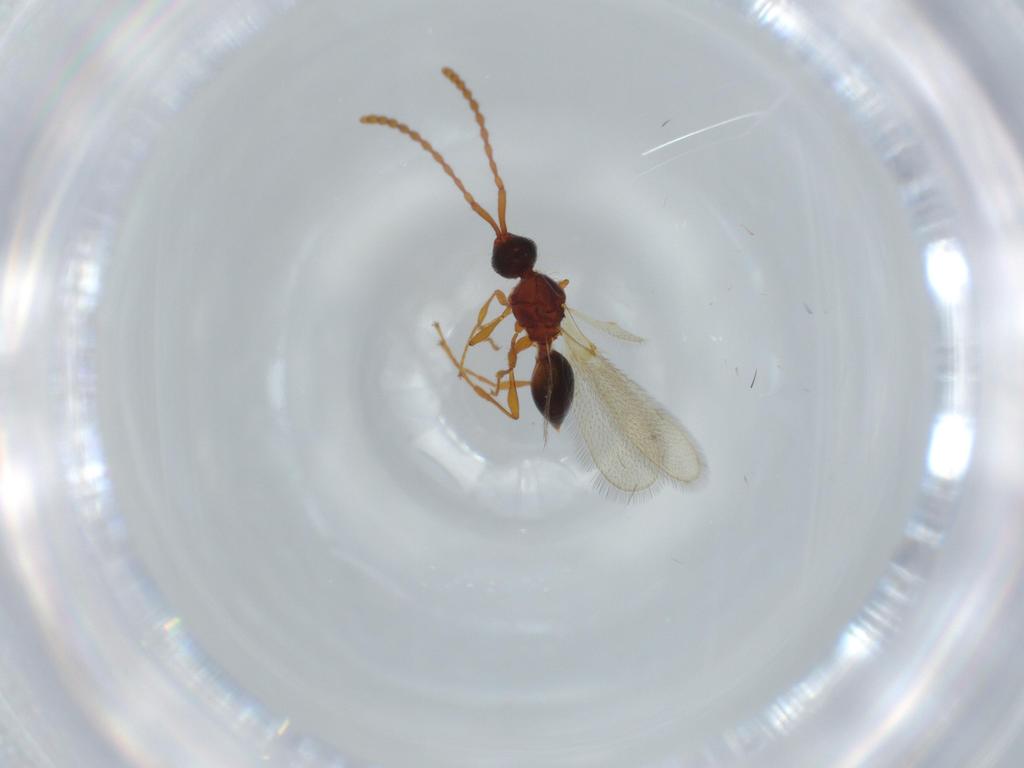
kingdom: Animalia
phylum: Arthropoda
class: Insecta
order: Hymenoptera
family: Diapriidae
